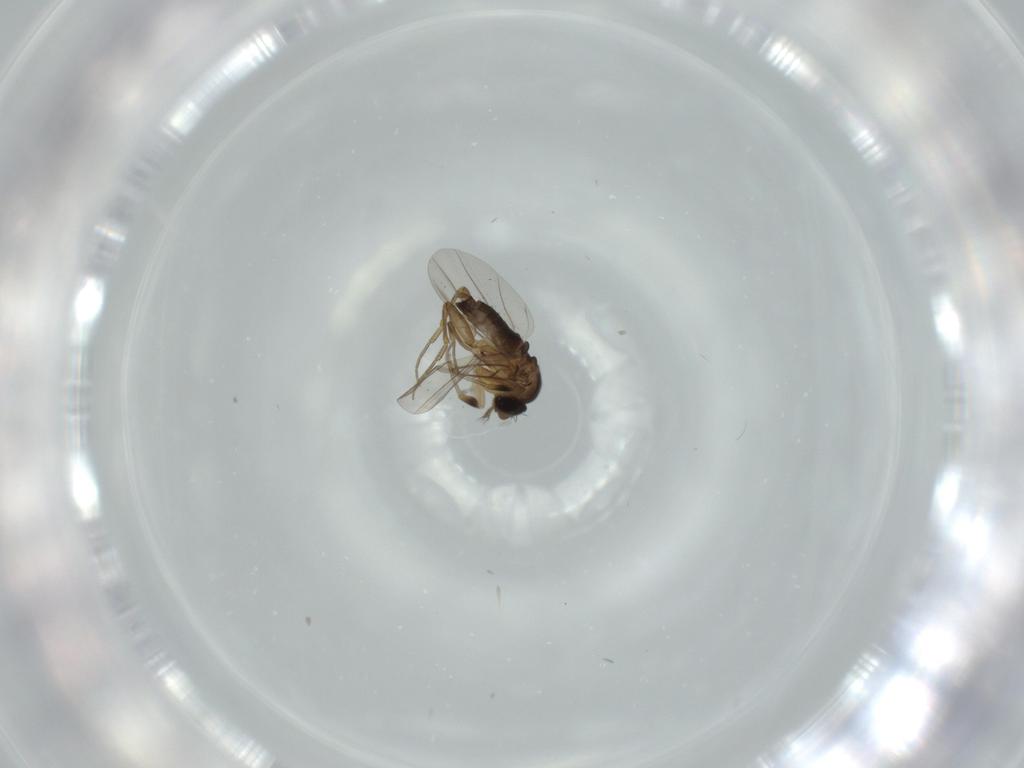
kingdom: Animalia
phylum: Arthropoda
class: Insecta
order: Diptera
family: Phoridae
